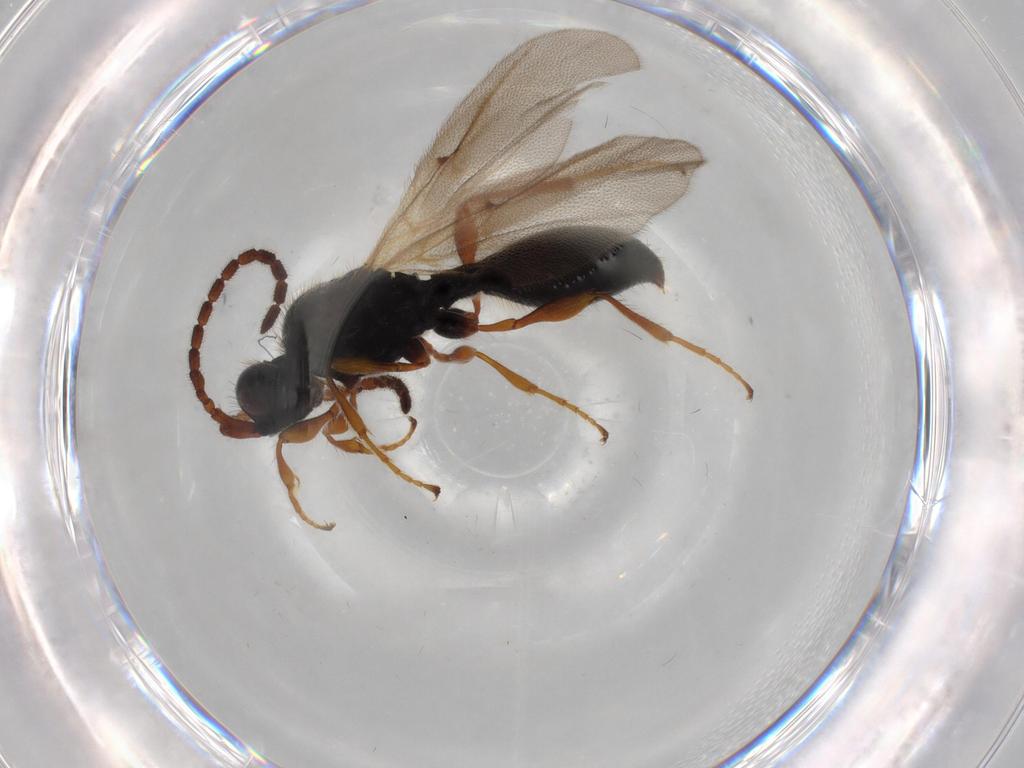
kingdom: Animalia
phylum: Arthropoda
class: Insecta
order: Hymenoptera
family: Diapriidae
